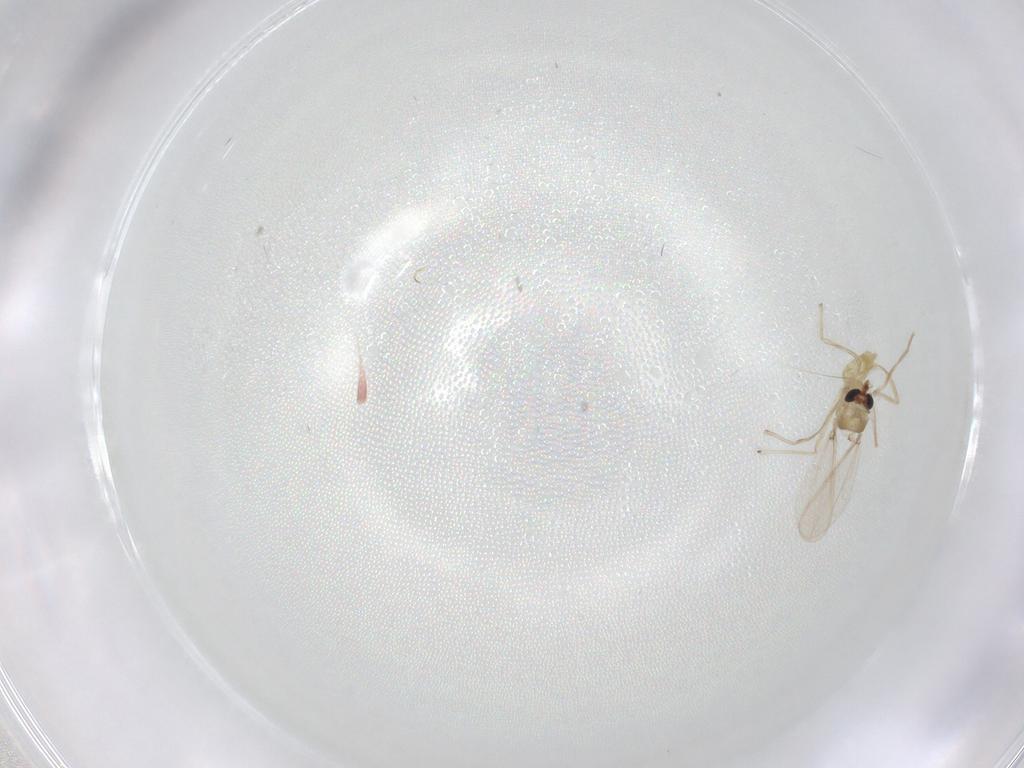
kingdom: Animalia
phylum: Arthropoda
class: Insecta
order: Diptera
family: Chironomidae
